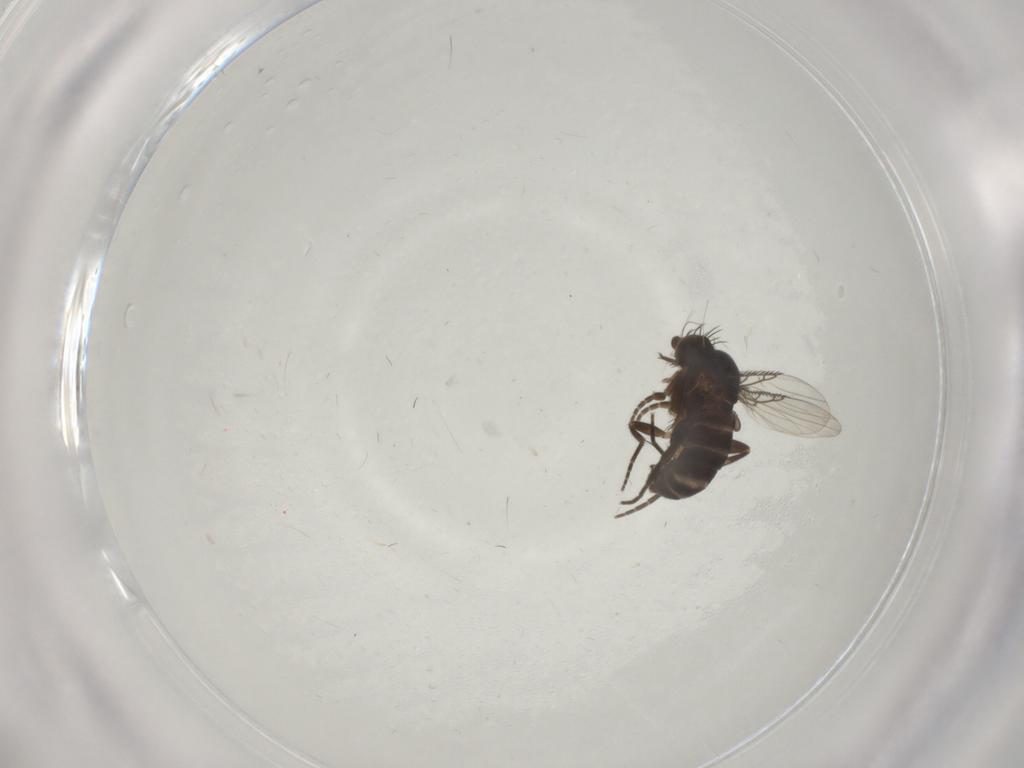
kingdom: Animalia
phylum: Arthropoda
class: Insecta
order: Diptera
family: Phoridae
